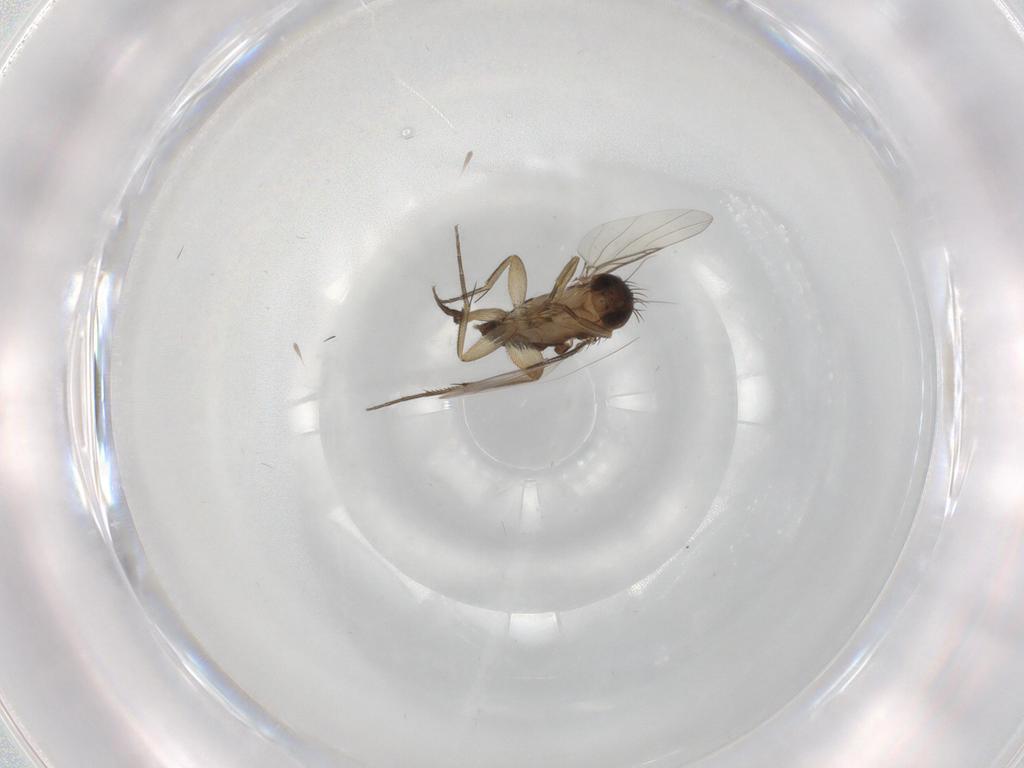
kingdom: Animalia
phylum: Arthropoda
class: Insecta
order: Diptera
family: Phoridae
